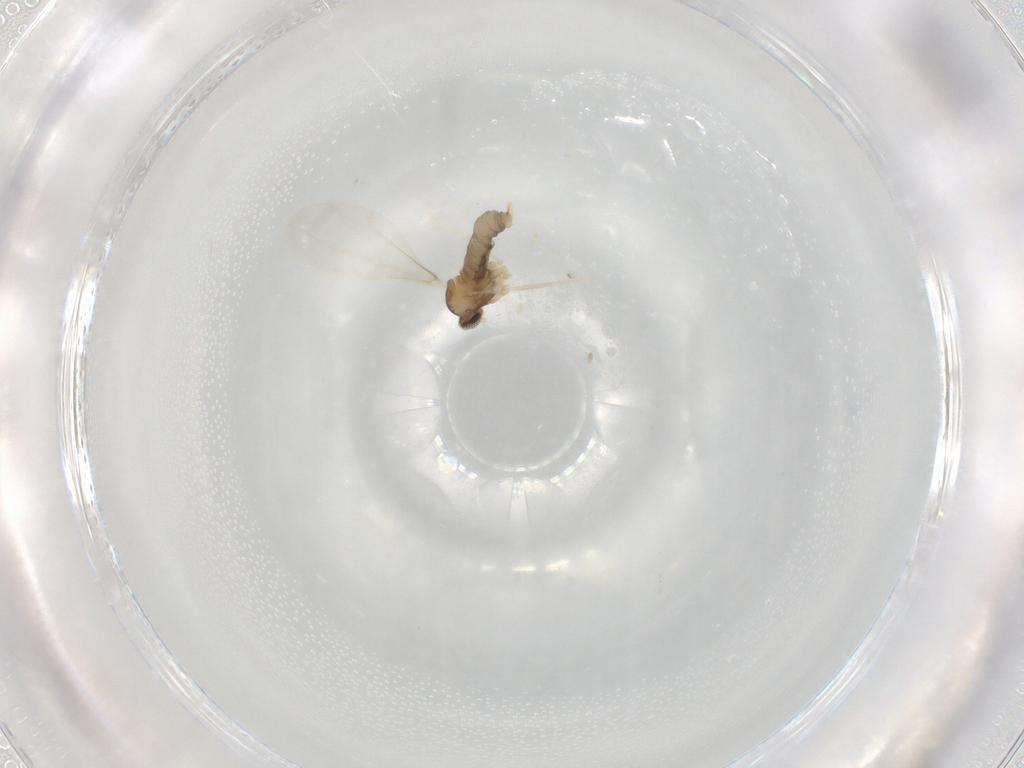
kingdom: Animalia
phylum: Arthropoda
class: Insecta
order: Diptera
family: Cecidomyiidae
